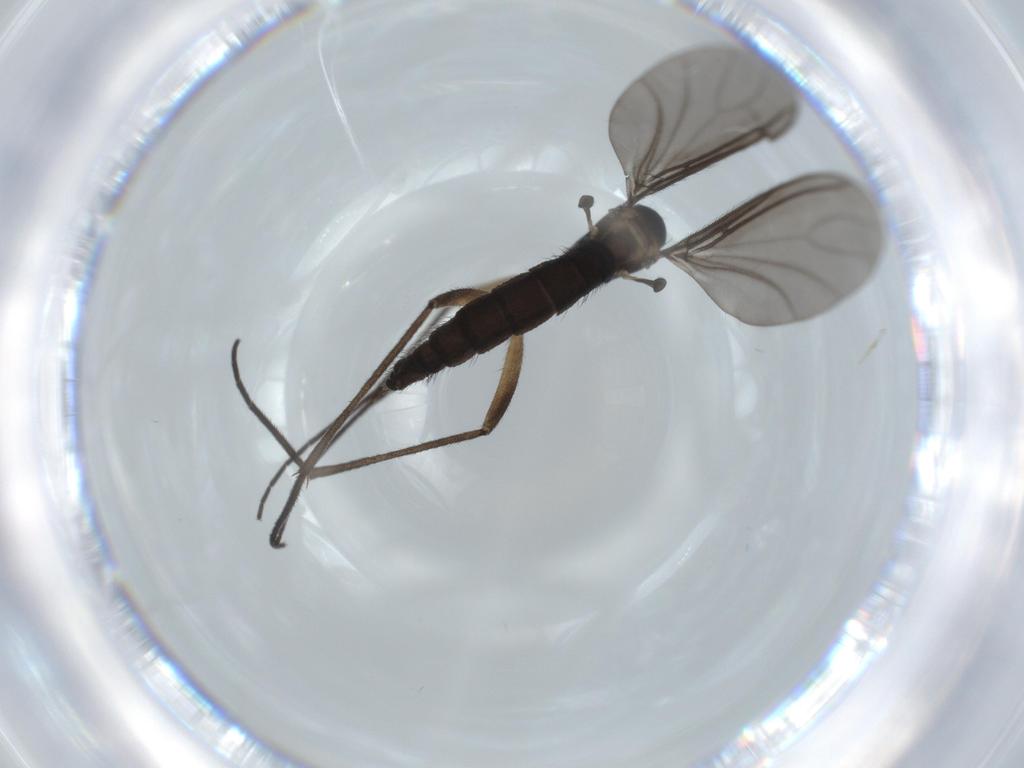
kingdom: Animalia
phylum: Arthropoda
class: Insecta
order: Diptera
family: Sciaridae
